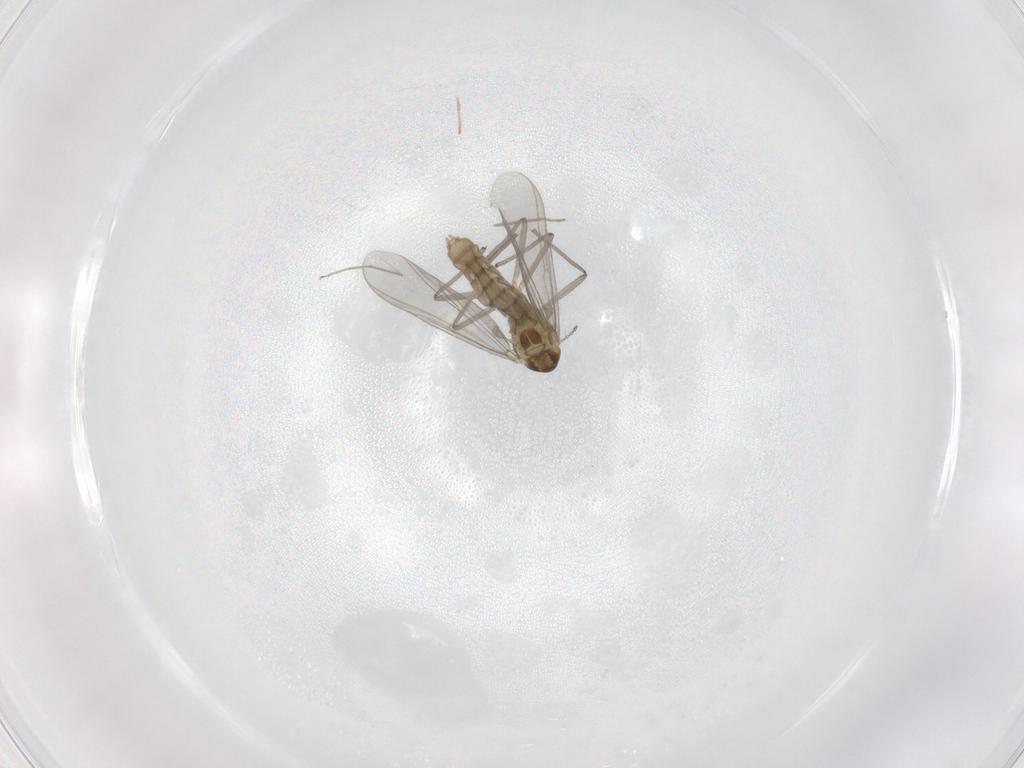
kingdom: Animalia
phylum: Arthropoda
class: Insecta
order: Diptera
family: Chironomidae
